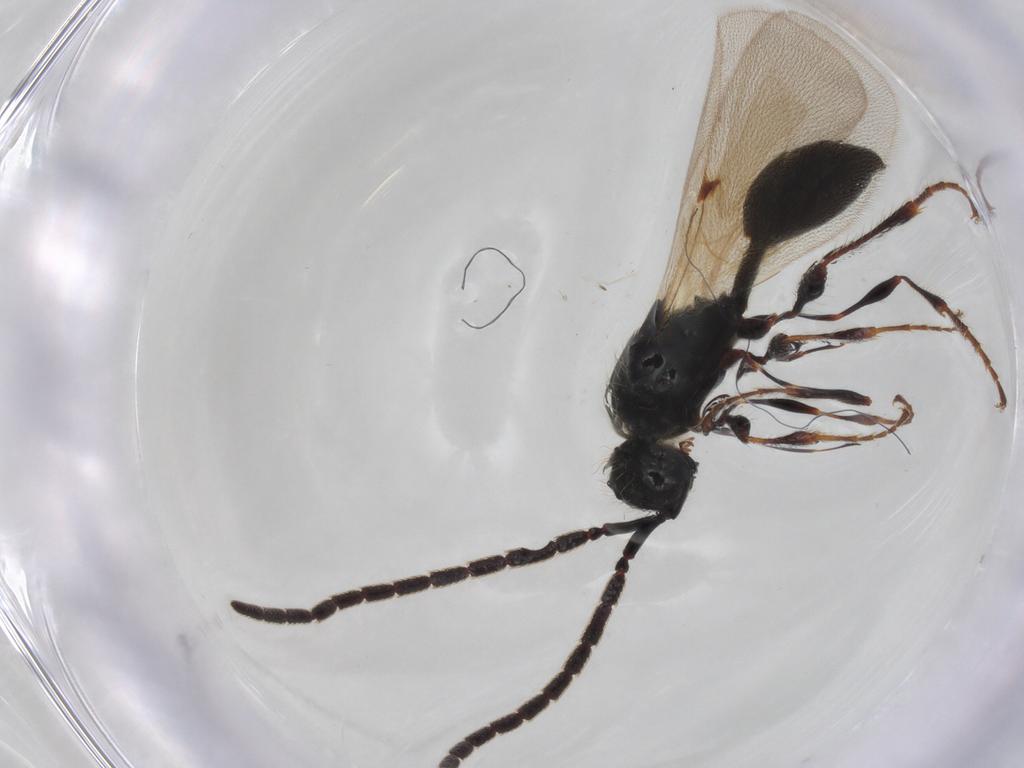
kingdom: Animalia
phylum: Arthropoda
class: Insecta
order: Hymenoptera
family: Diapriidae
